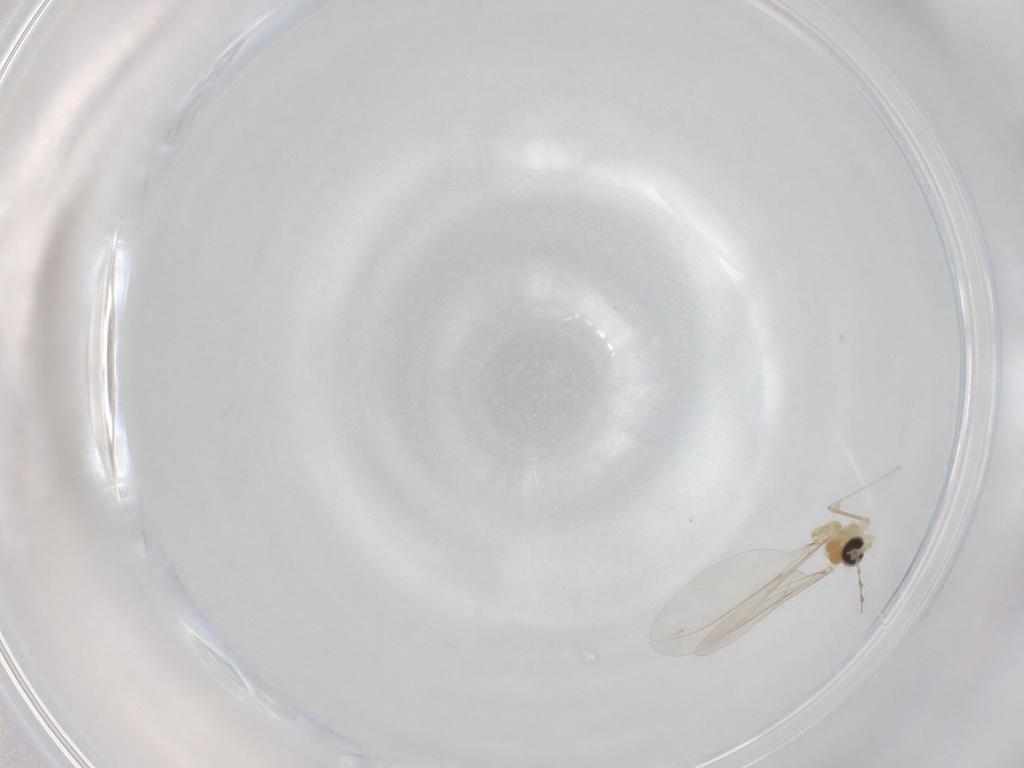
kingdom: Animalia
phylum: Arthropoda
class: Insecta
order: Diptera
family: Cecidomyiidae
